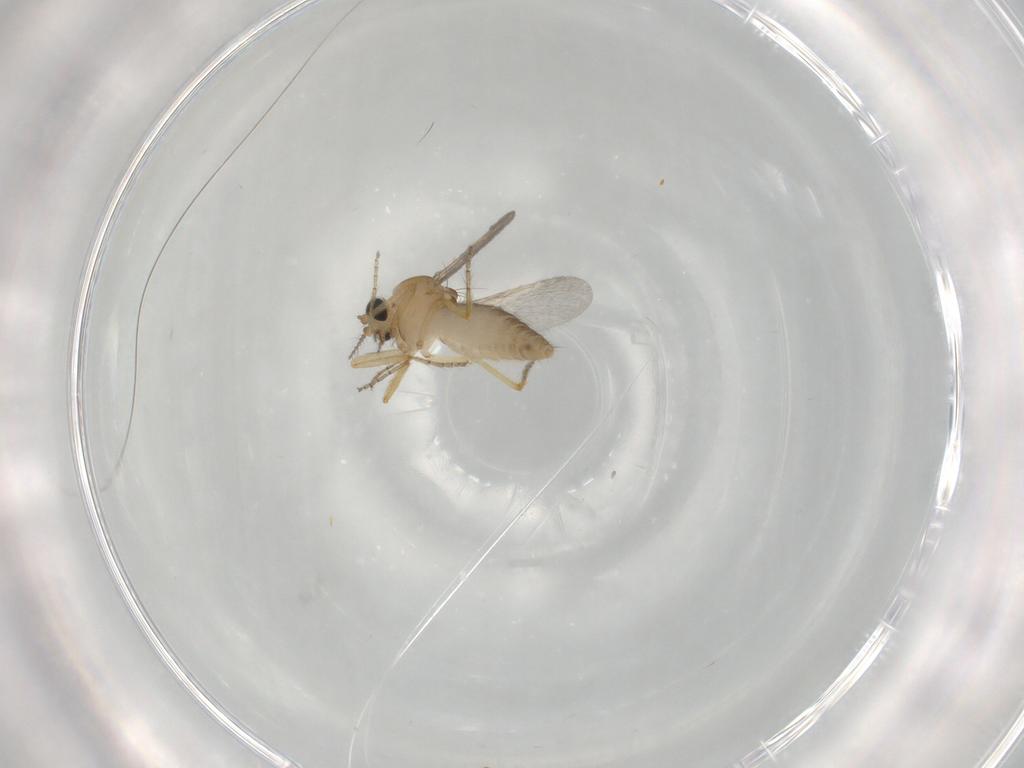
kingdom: Animalia
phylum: Arthropoda
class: Insecta
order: Diptera
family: Ceratopogonidae
